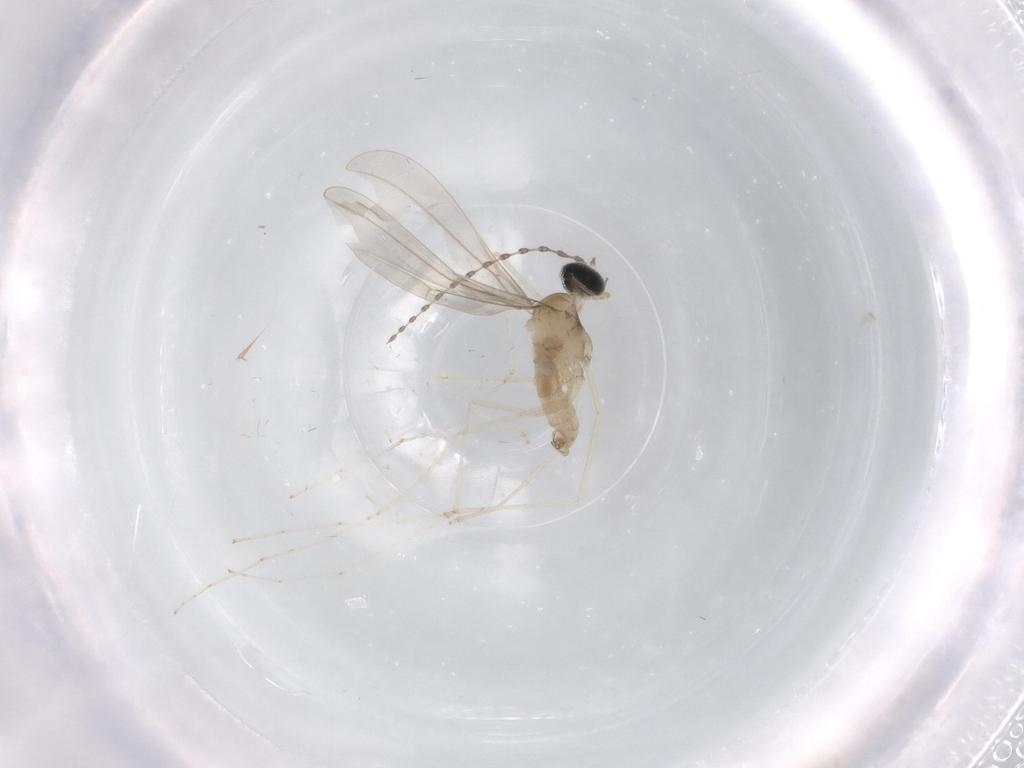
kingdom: Animalia
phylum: Arthropoda
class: Insecta
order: Diptera
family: Cecidomyiidae
